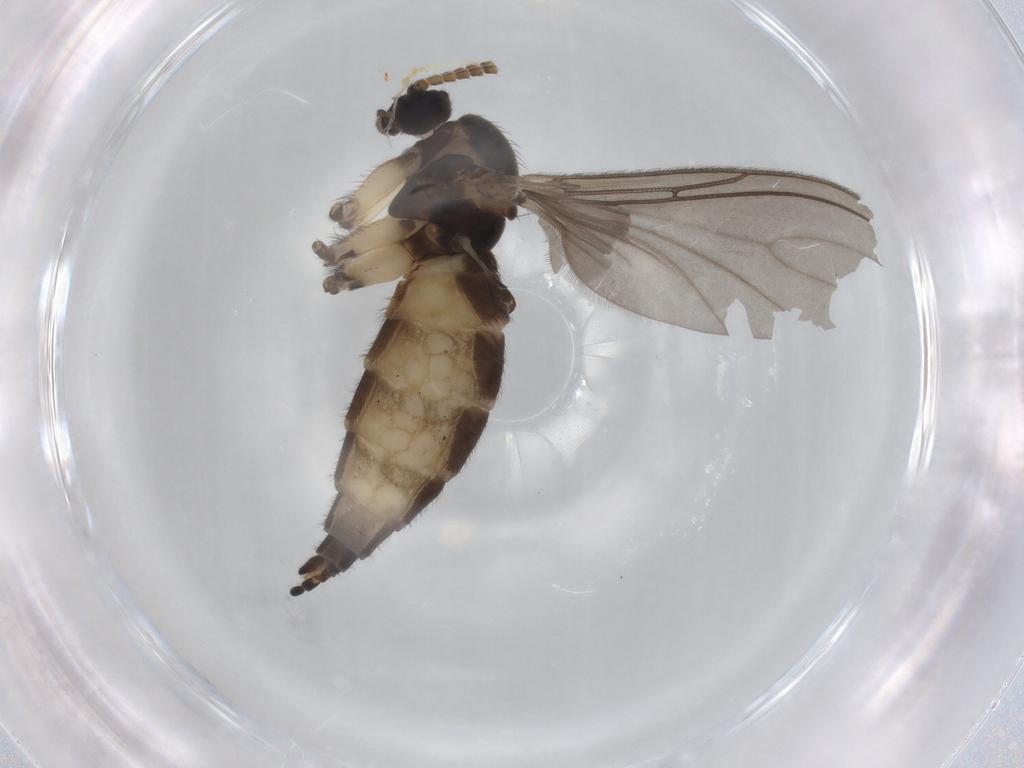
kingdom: Animalia
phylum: Arthropoda
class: Insecta
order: Diptera
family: Sciaridae
